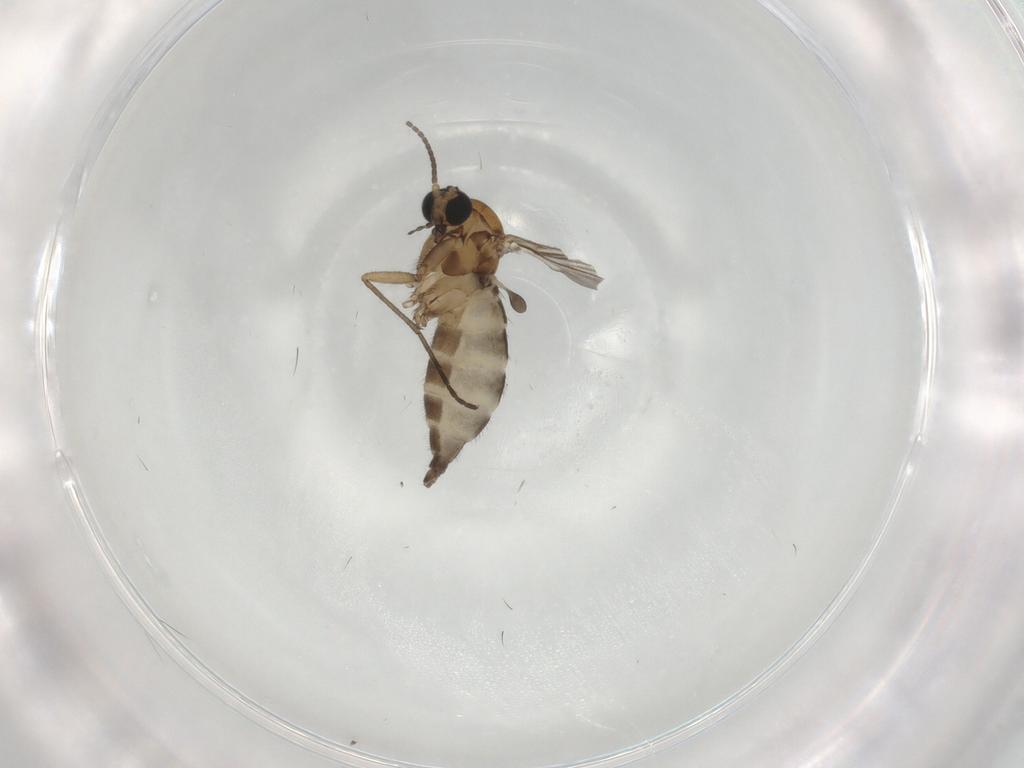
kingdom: Animalia
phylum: Arthropoda
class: Insecta
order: Diptera
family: Sciaridae
